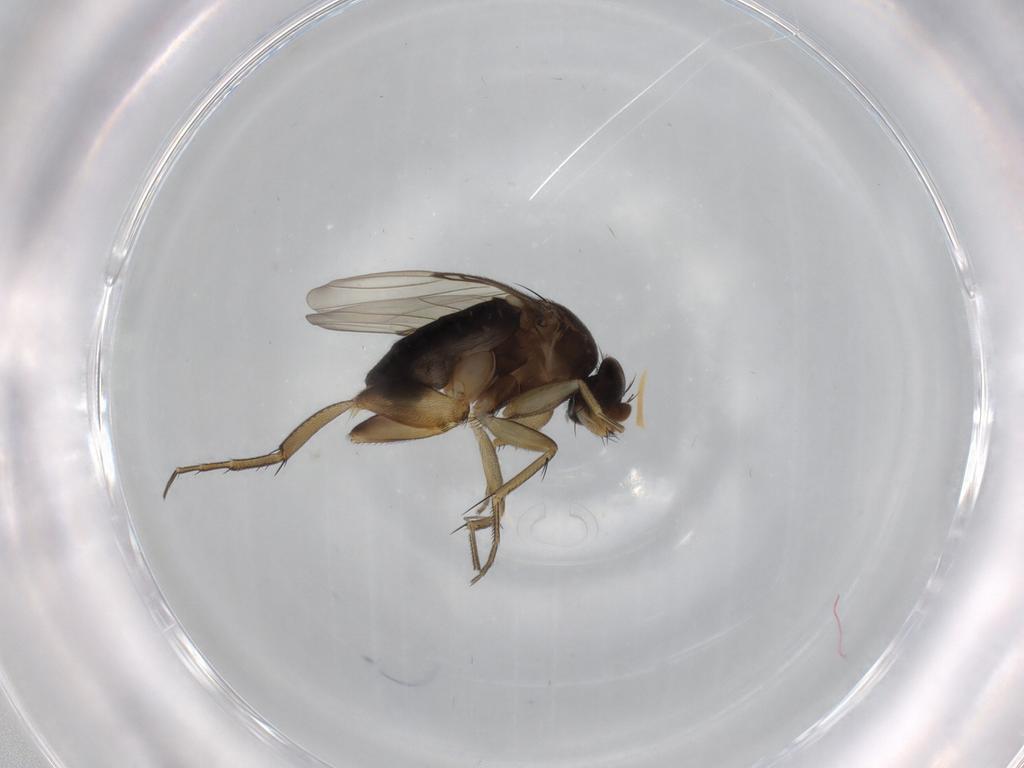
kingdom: Animalia
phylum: Arthropoda
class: Insecta
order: Diptera
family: Phoridae
